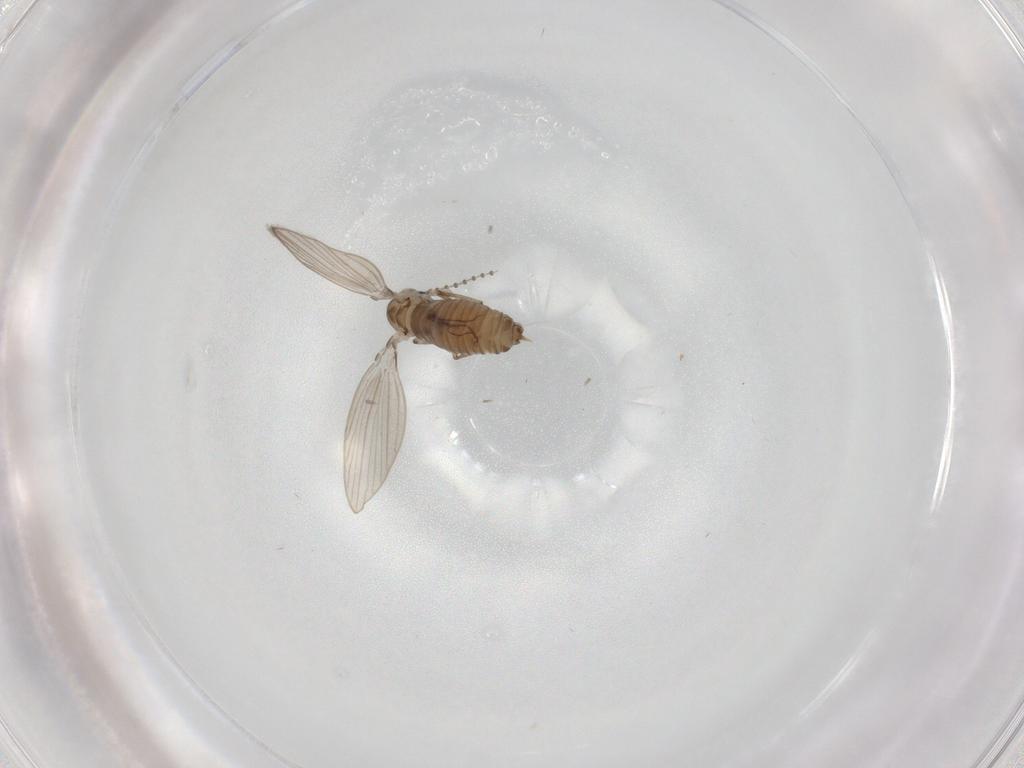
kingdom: Animalia
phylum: Arthropoda
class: Insecta
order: Diptera
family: Psychodidae
